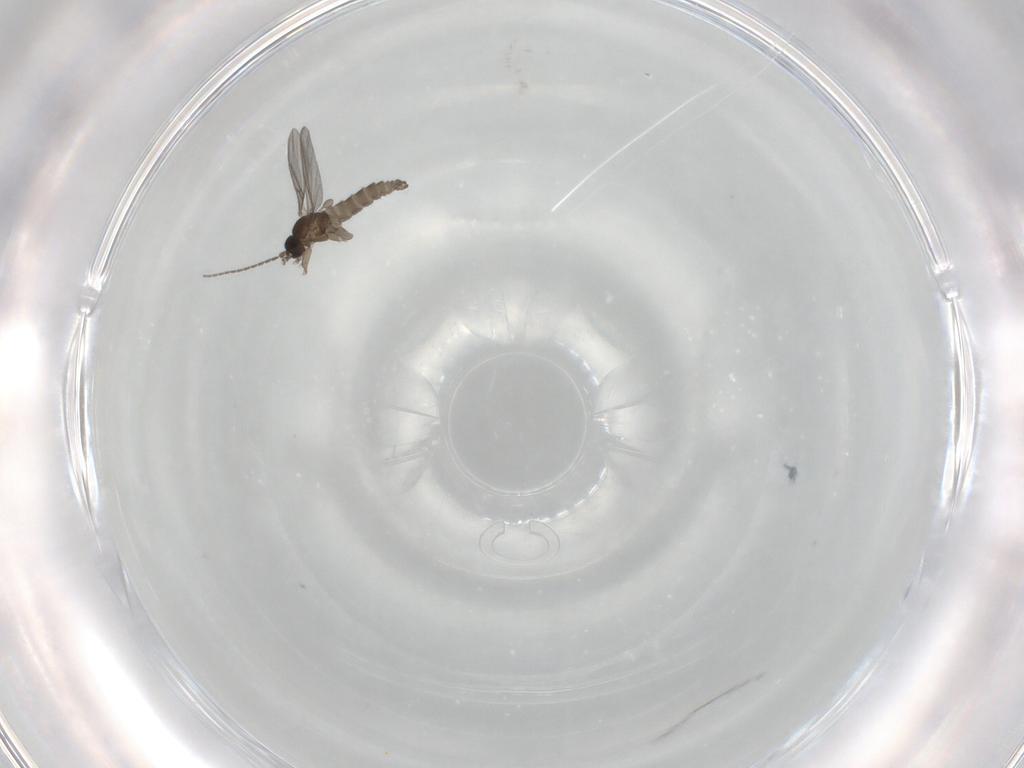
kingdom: Animalia
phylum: Arthropoda
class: Insecta
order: Diptera
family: Sciaridae
